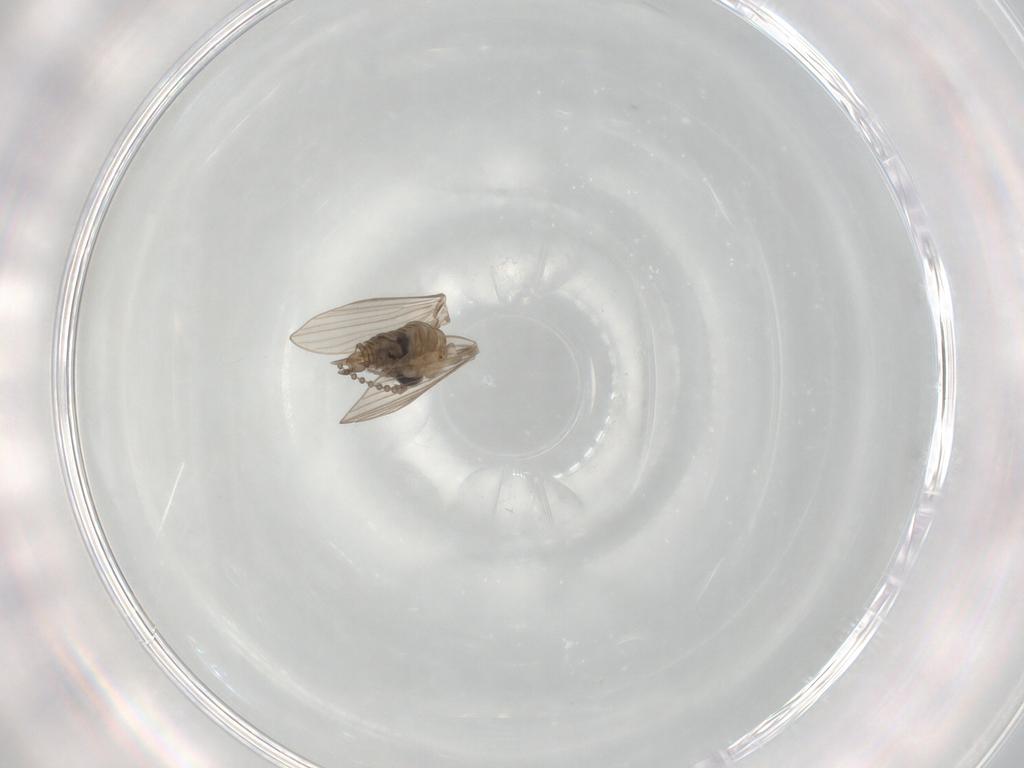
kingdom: Animalia
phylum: Arthropoda
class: Insecta
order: Diptera
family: Psychodidae
